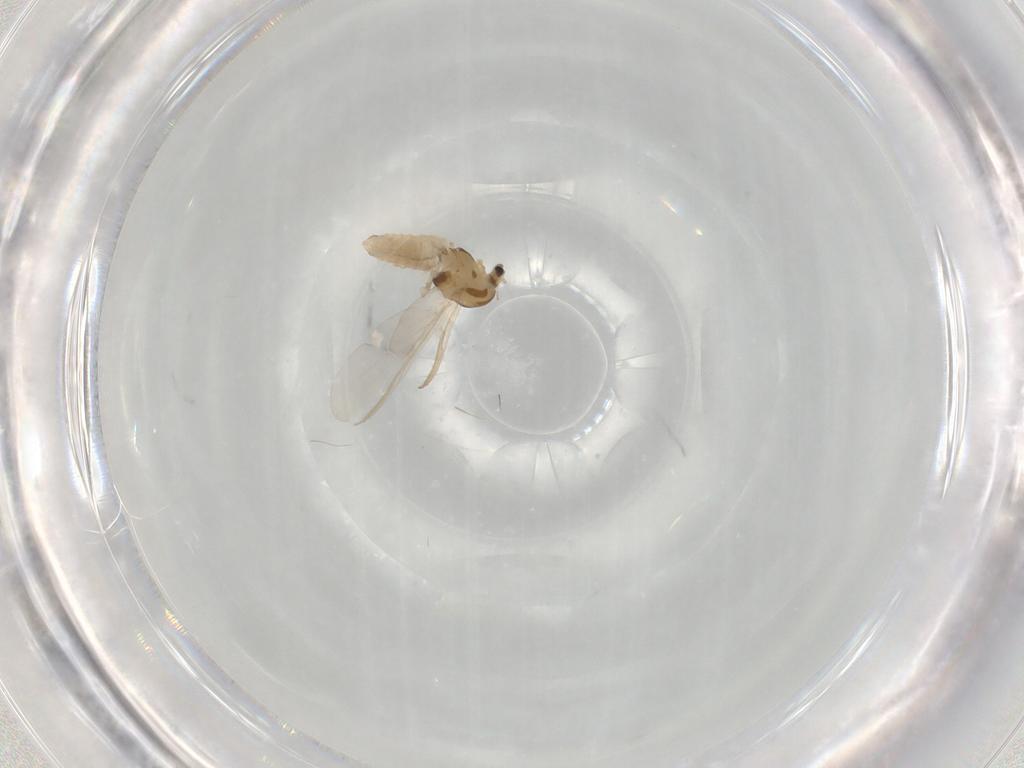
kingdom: Animalia
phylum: Arthropoda
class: Insecta
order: Diptera
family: Chironomidae
